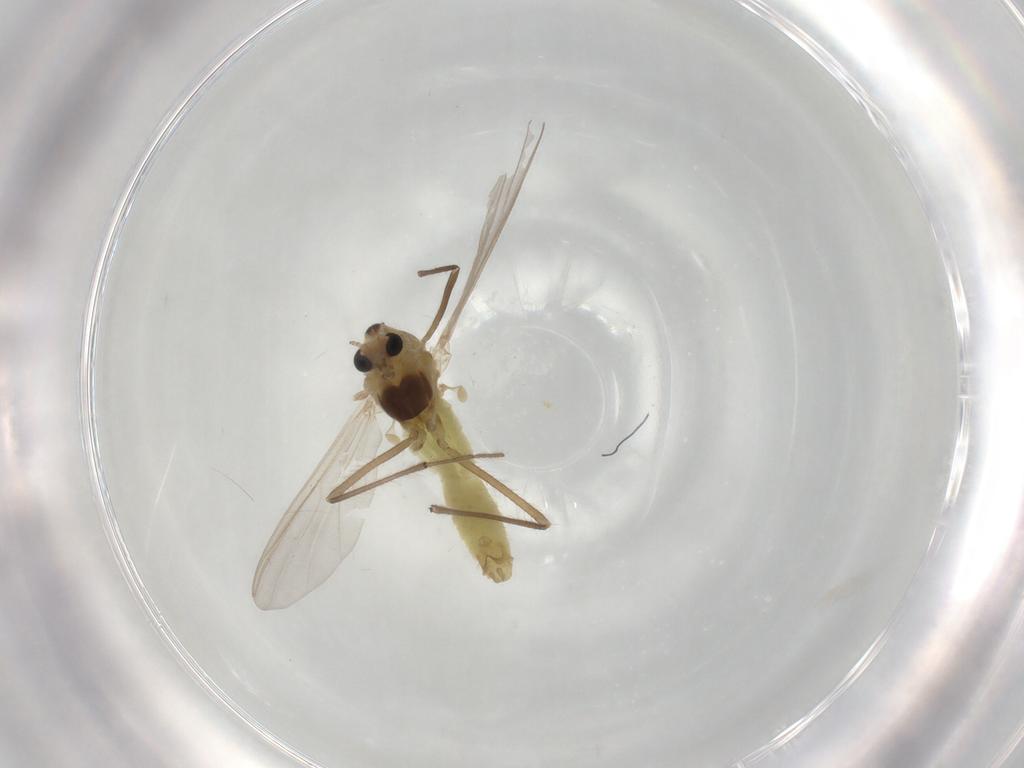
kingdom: Animalia
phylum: Arthropoda
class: Insecta
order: Diptera
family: Chironomidae
